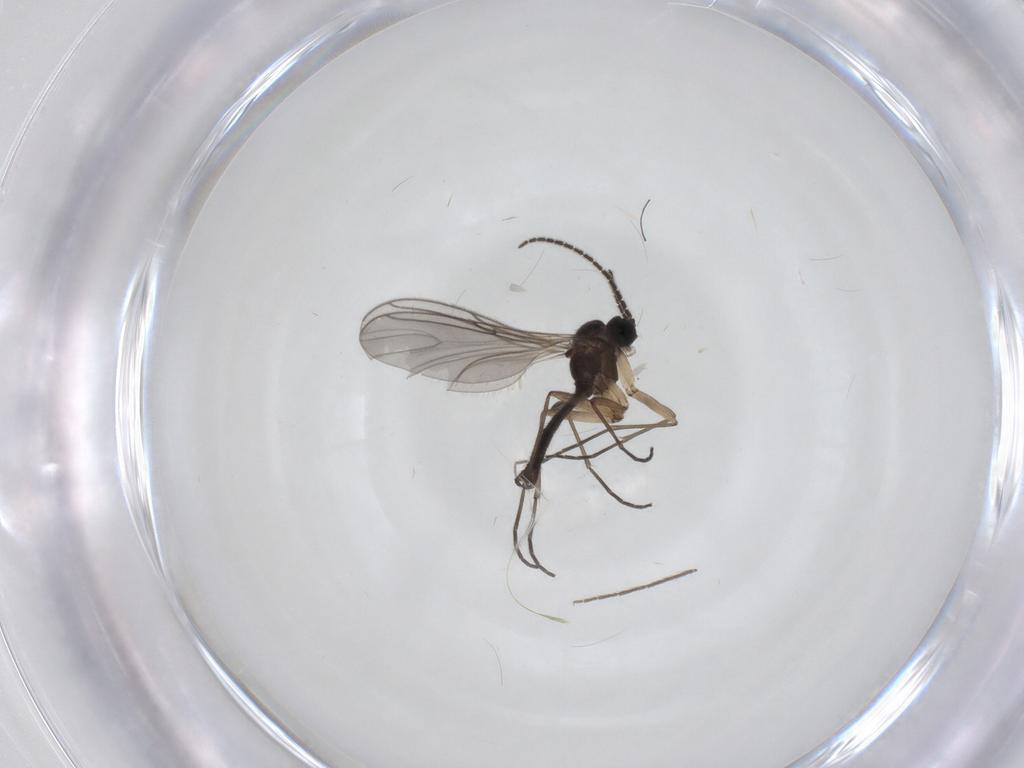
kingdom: Animalia
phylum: Arthropoda
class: Insecta
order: Diptera
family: Sciaridae
